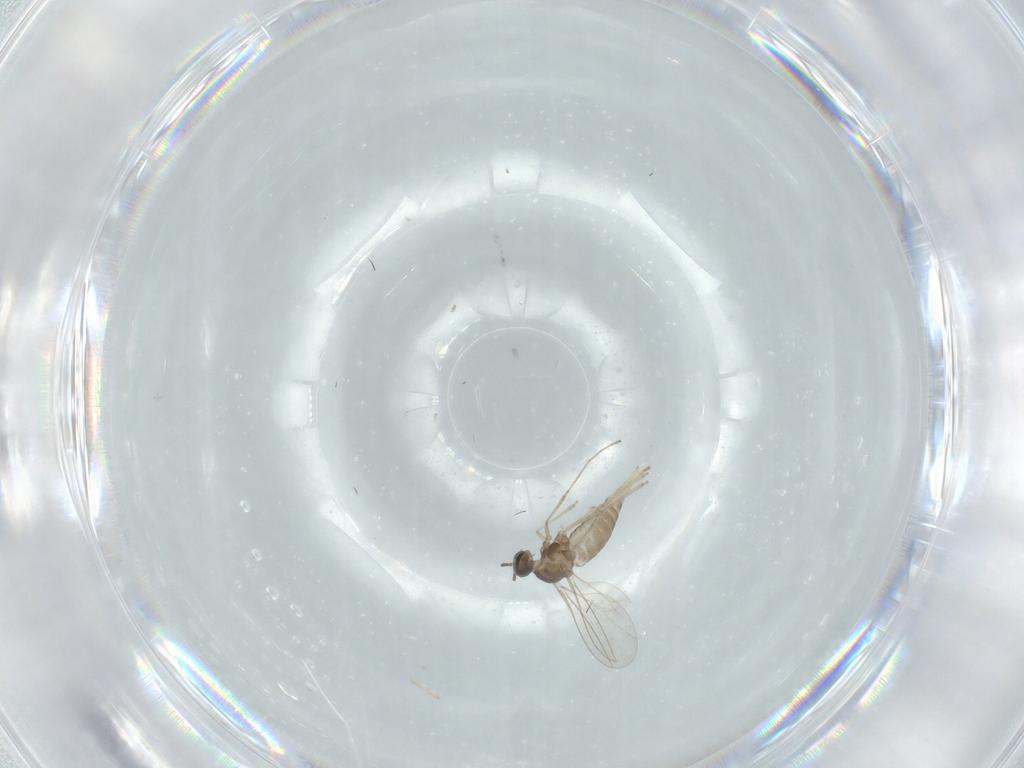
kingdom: Animalia
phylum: Arthropoda
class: Insecta
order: Diptera
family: Cecidomyiidae
